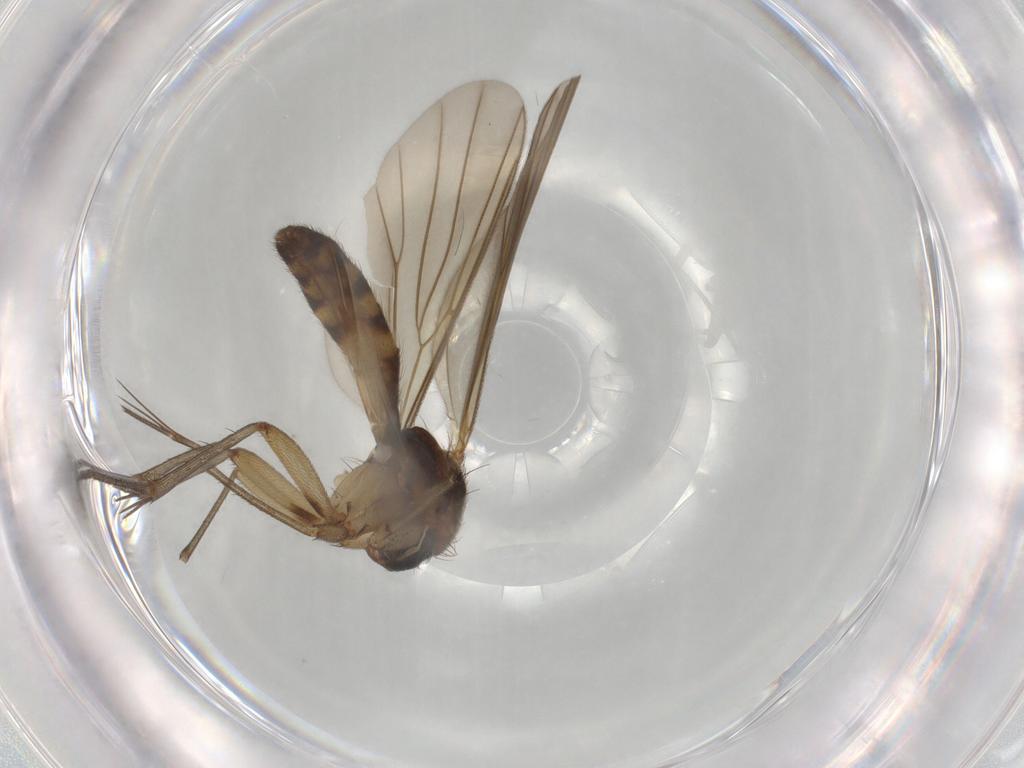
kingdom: Animalia
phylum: Arthropoda
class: Insecta
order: Diptera
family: Mycetophilidae
